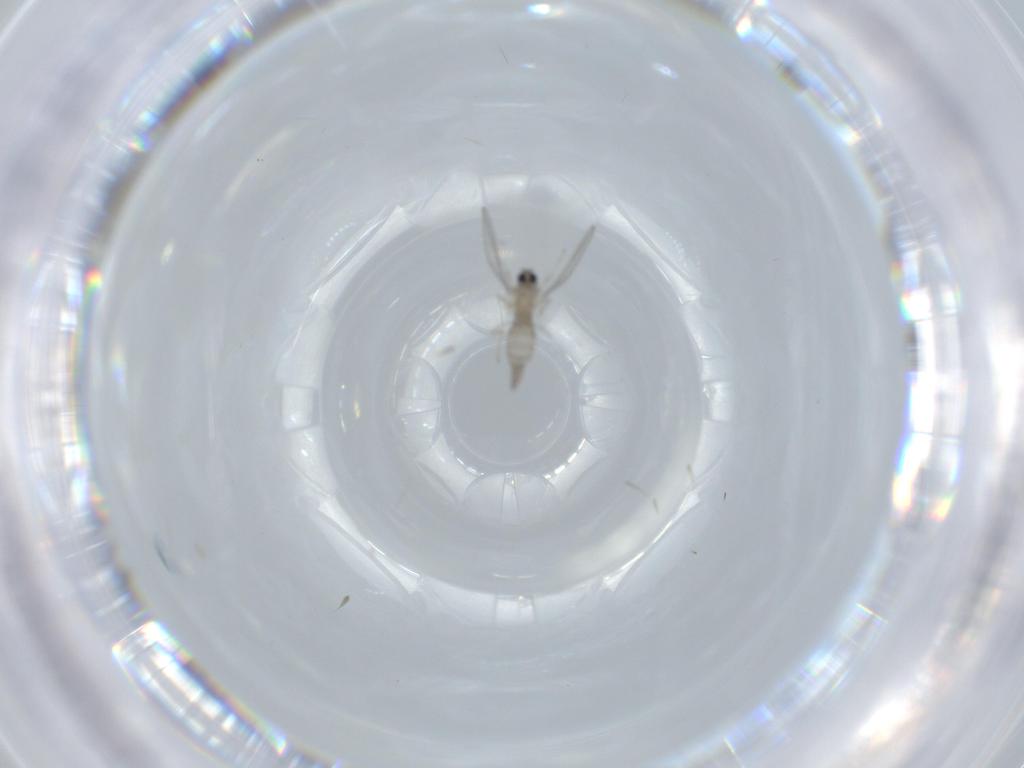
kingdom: Animalia
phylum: Arthropoda
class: Insecta
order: Diptera
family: Cecidomyiidae
